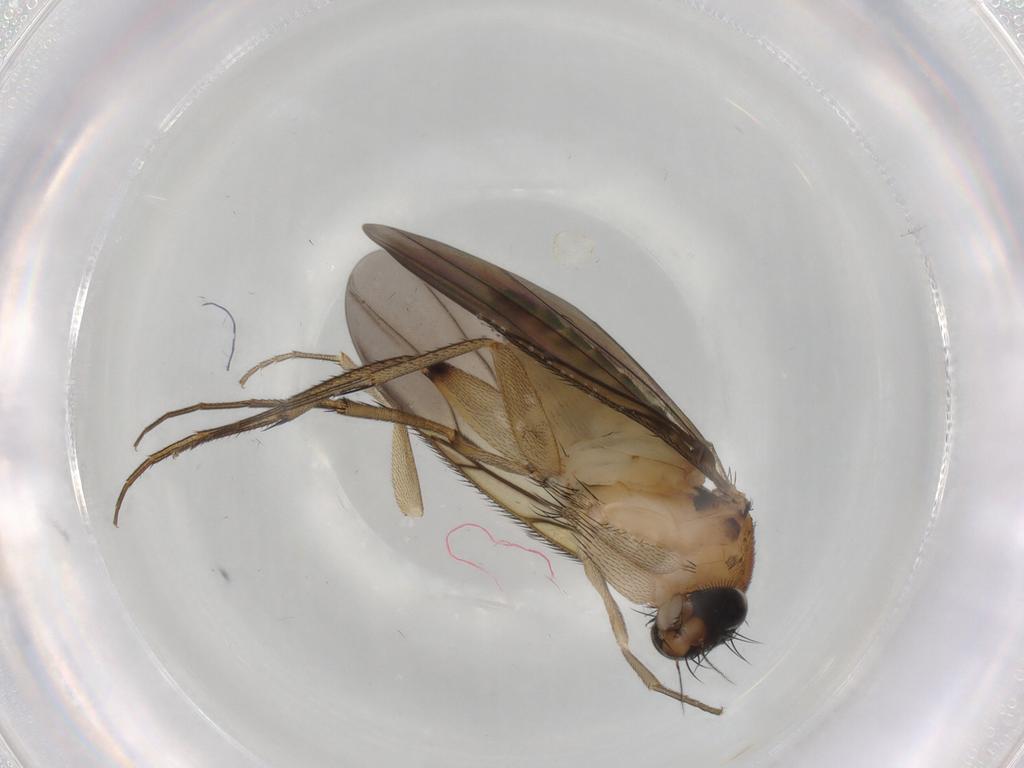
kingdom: Animalia
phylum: Arthropoda
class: Insecta
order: Diptera
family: Phoridae
